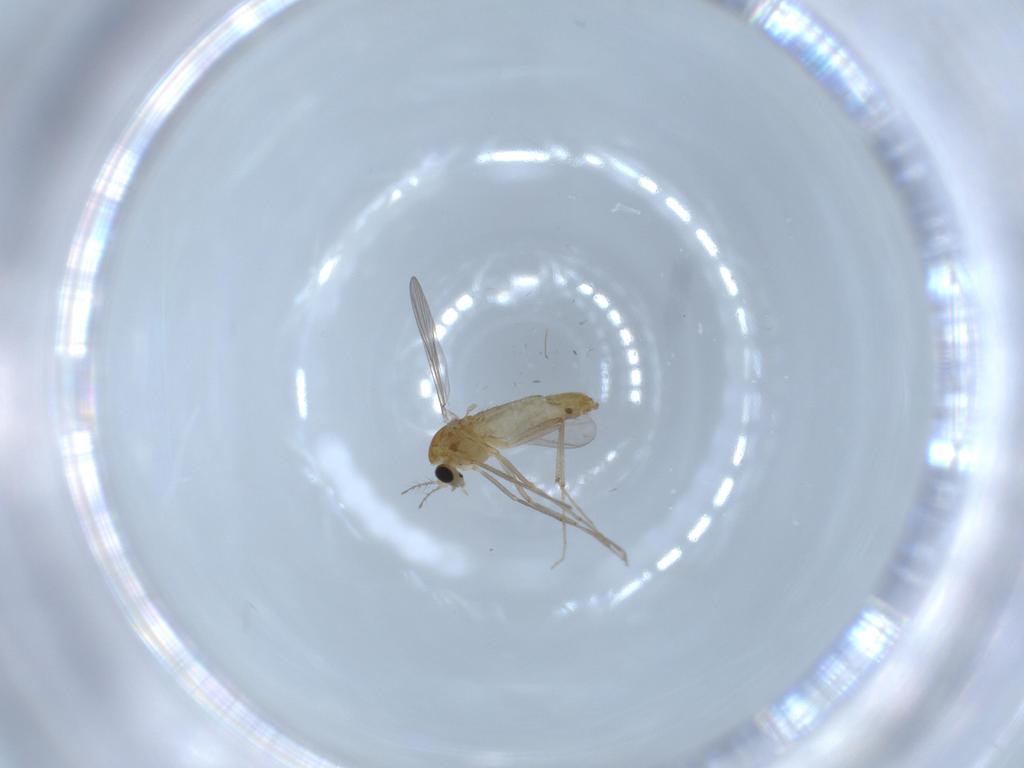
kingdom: Animalia
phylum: Arthropoda
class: Insecta
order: Diptera
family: Chironomidae
